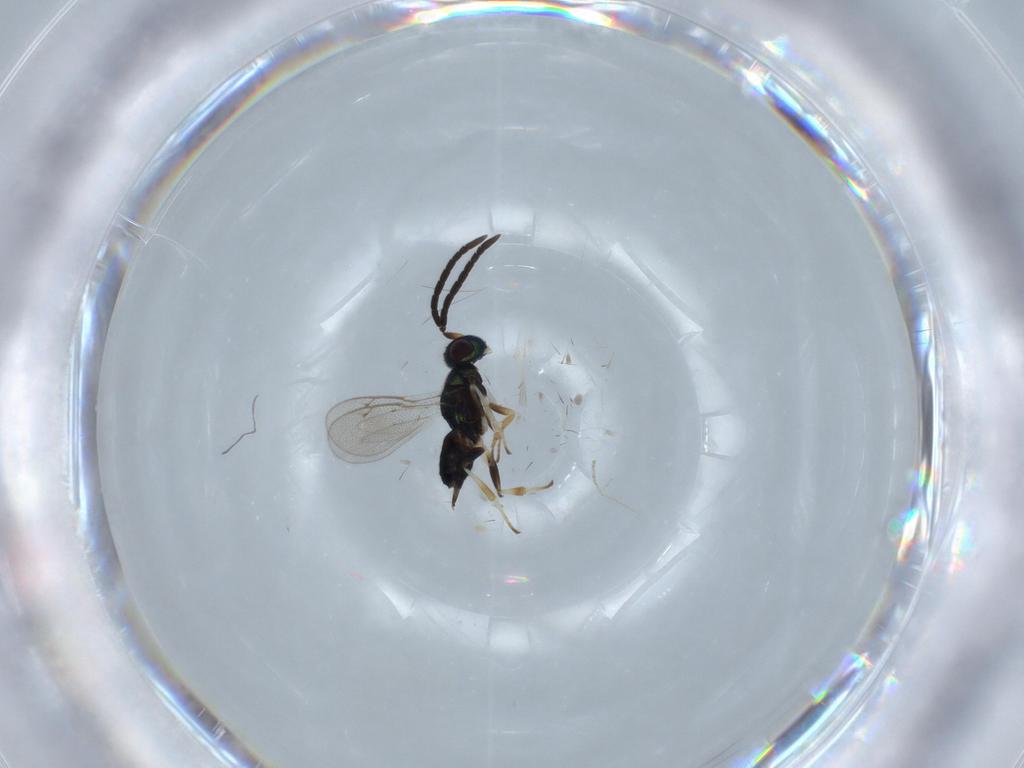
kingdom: Animalia
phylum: Arthropoda
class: Insecta
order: Hymenoptera
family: Eupelmidae
